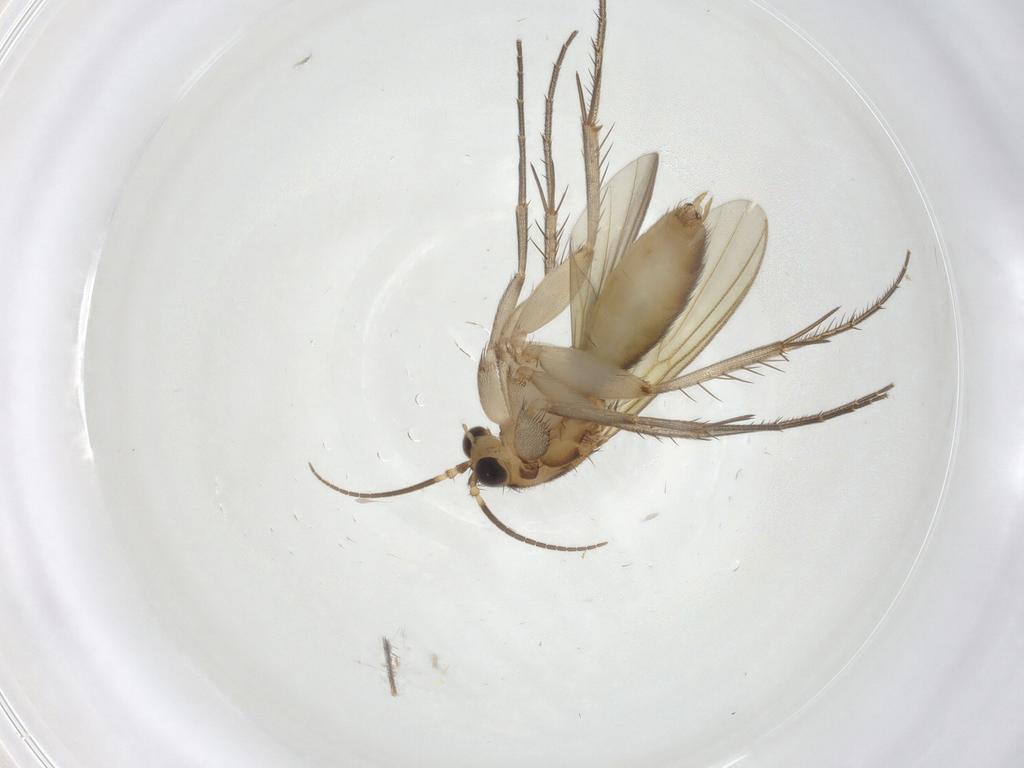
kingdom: Animalia
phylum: Arthropoda
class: Insecta
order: Diptera
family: Mycetophilidae
